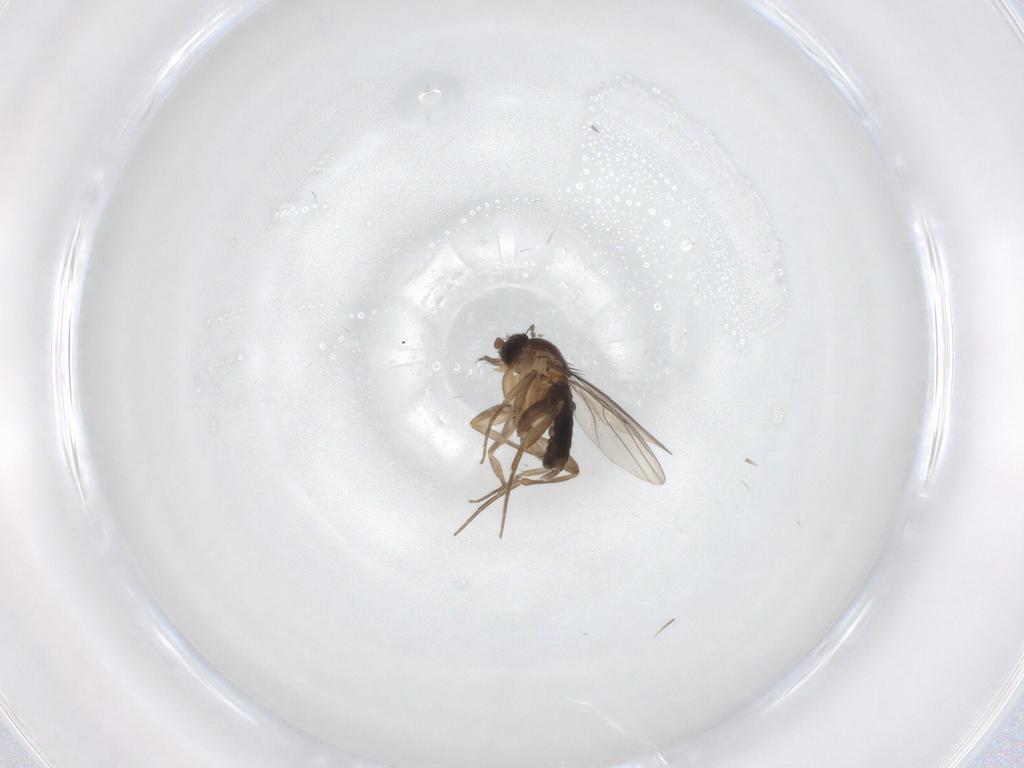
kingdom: Animalia
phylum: Arthropoda
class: Insecta
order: Diptera
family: Phoridae
